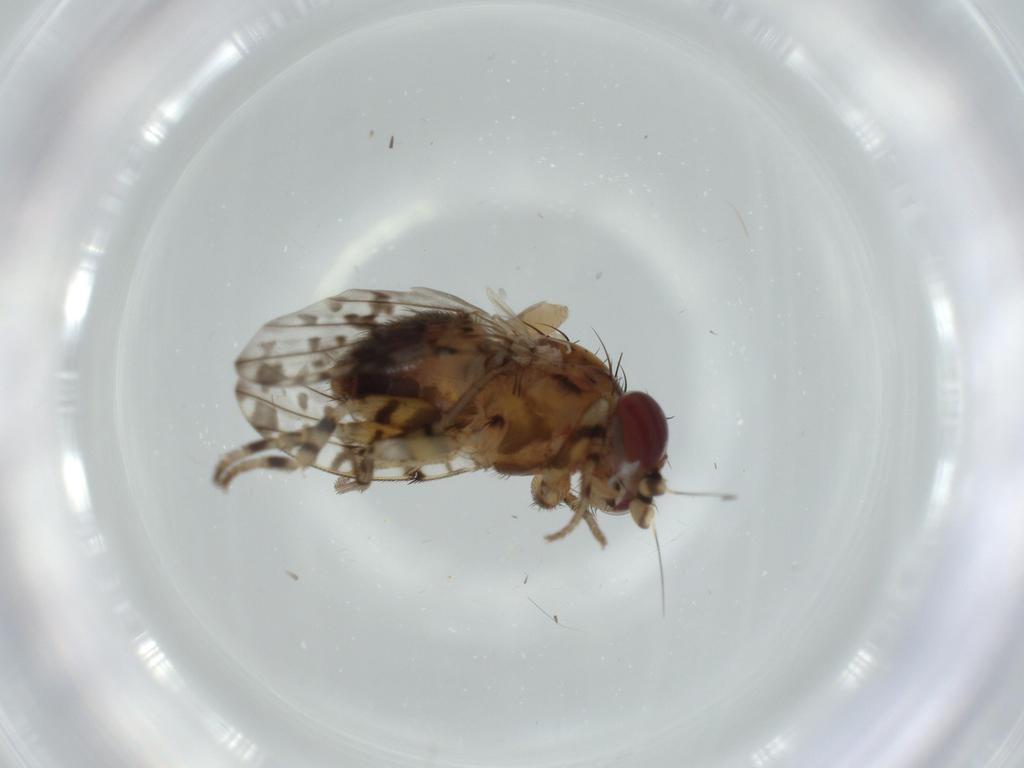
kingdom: Animalia
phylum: Arthropoda
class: Insecta
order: Diptera
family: Odiniidae
